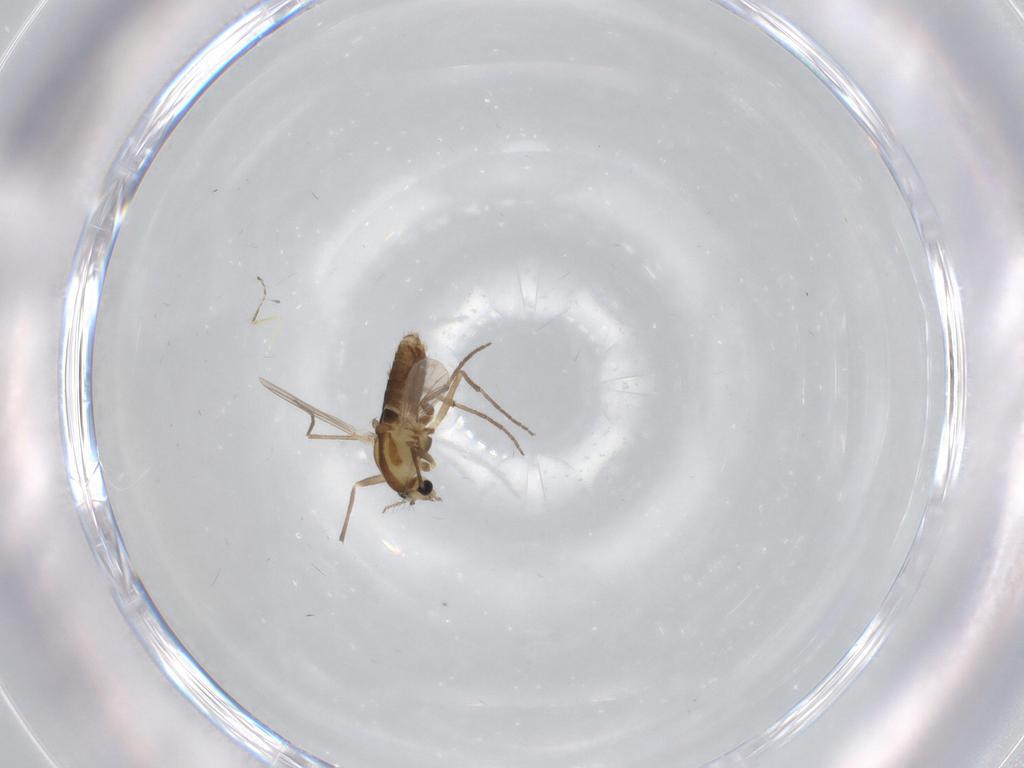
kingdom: Animalia
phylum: Arthropoda
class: Insecta
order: Diptera
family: Chironomidae
